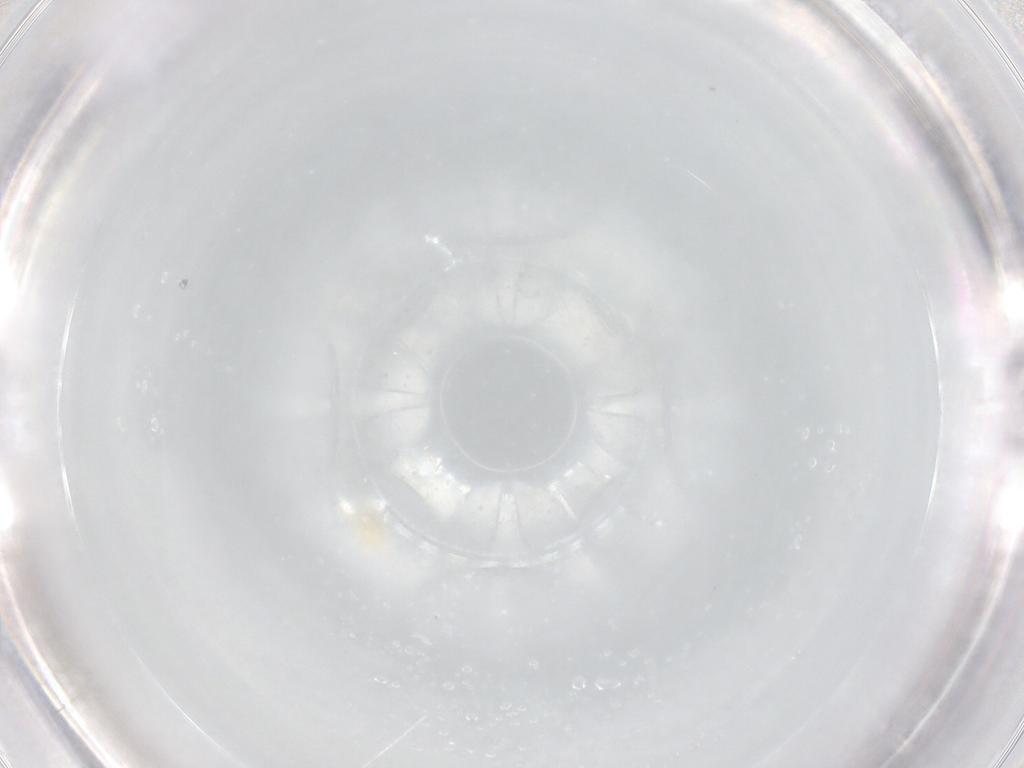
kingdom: Animalia
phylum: Arthropoda
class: Arachnida
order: Trombidiformes
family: Eupodidae
